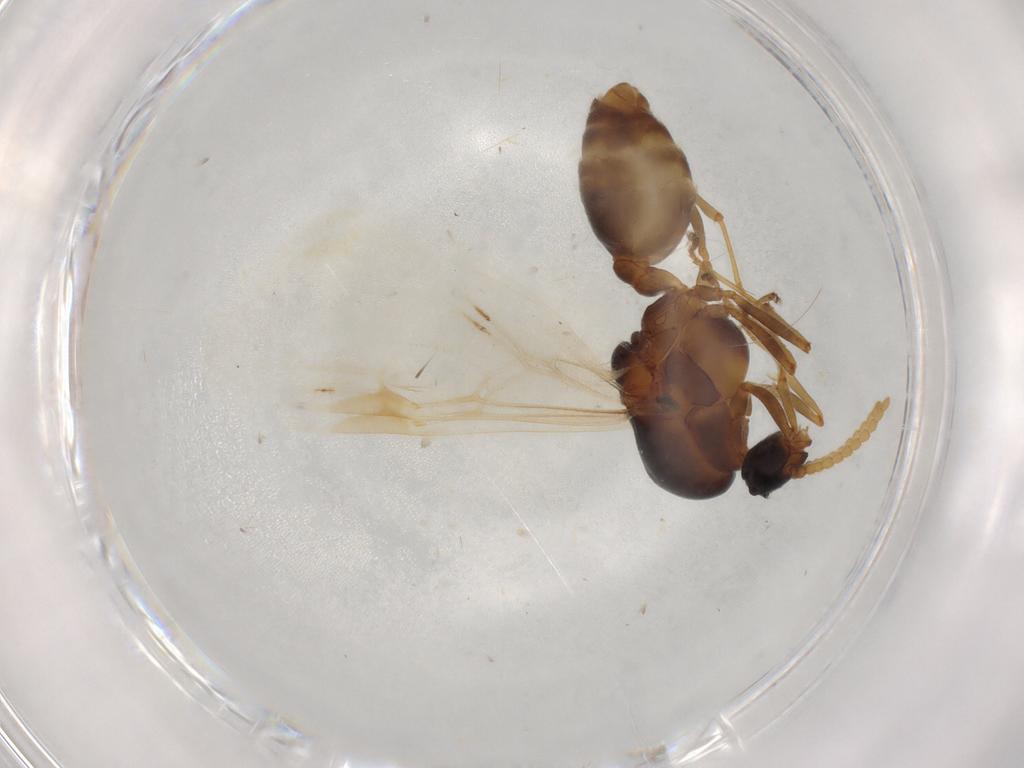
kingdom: Animalia
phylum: Arthropoda
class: Insecta
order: Hymenoptera
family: Formicidae
